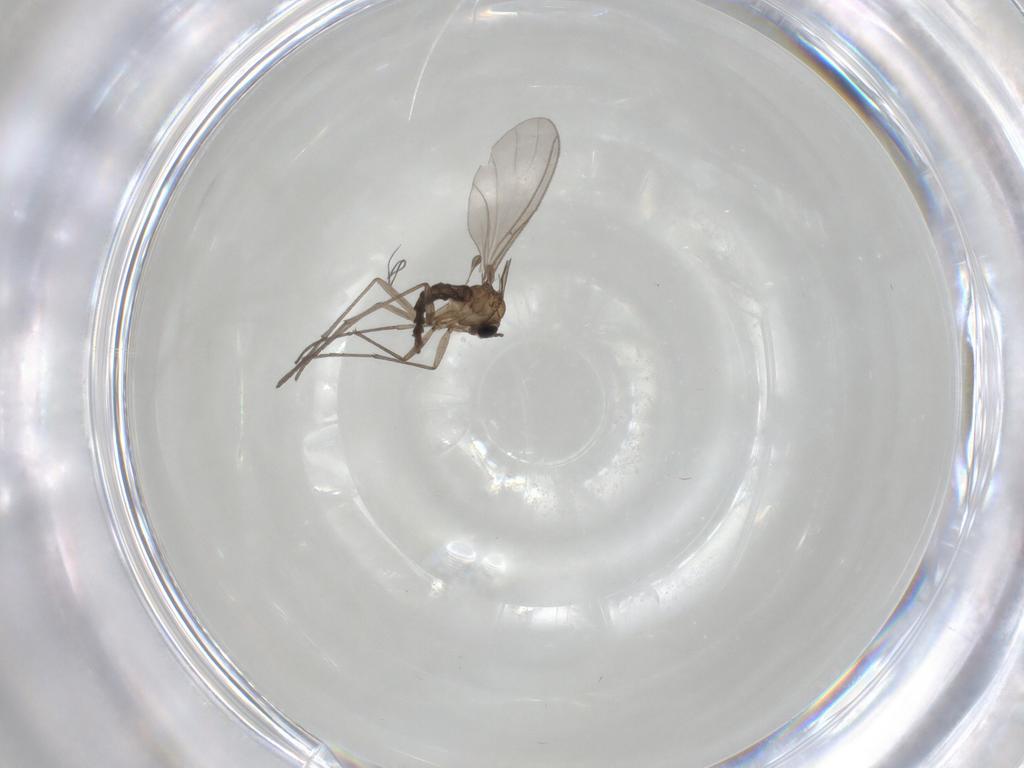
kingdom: Animalia
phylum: Arthropoda
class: Insecta
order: Diptera
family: Sciaridae
